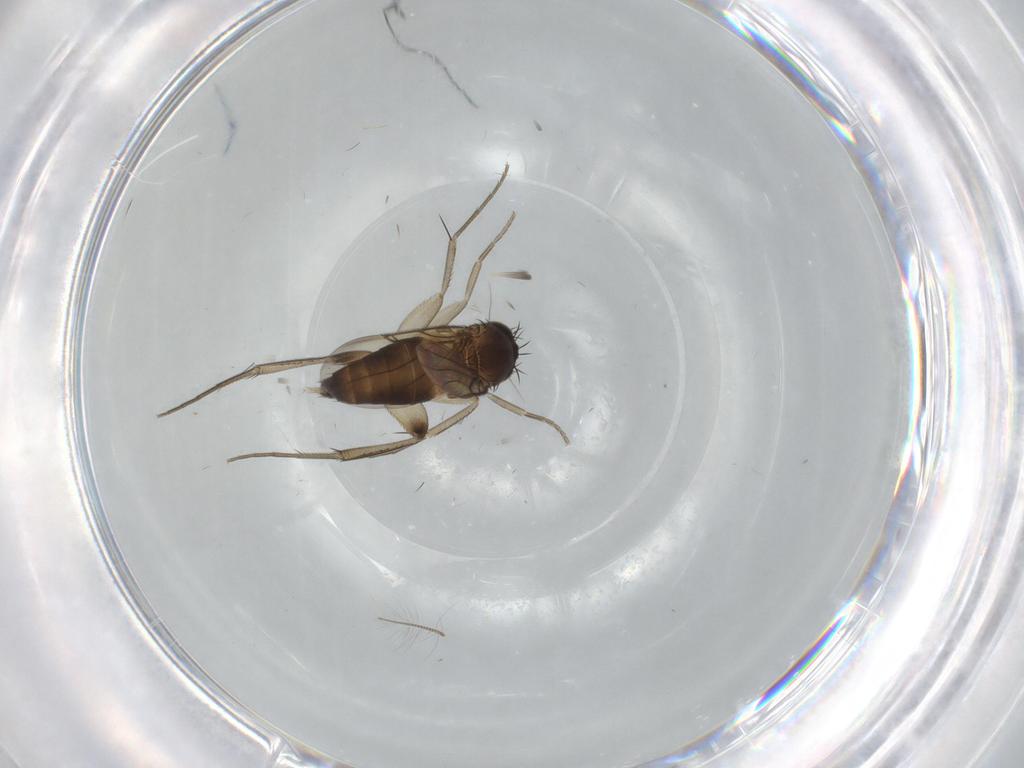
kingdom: Animalia
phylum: Arthropoda
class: Insecta
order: Diptera
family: Phoridae
